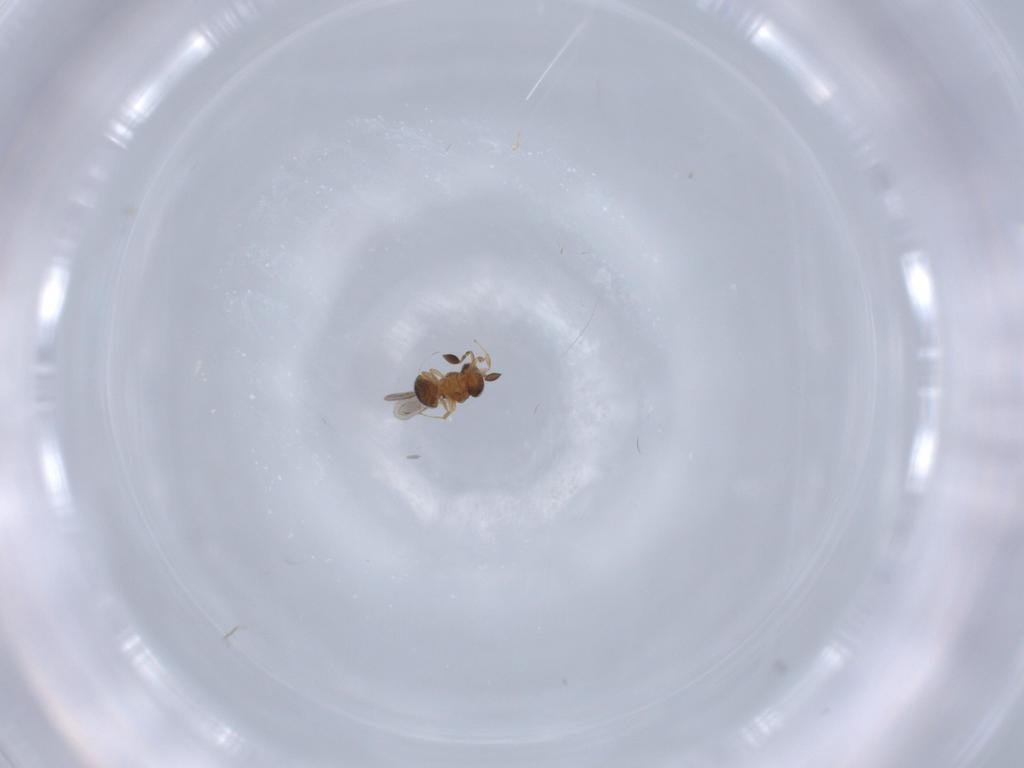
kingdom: Animalia
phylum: Arthropoda
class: Insecta
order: Hymenoptera
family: Scelionidae
